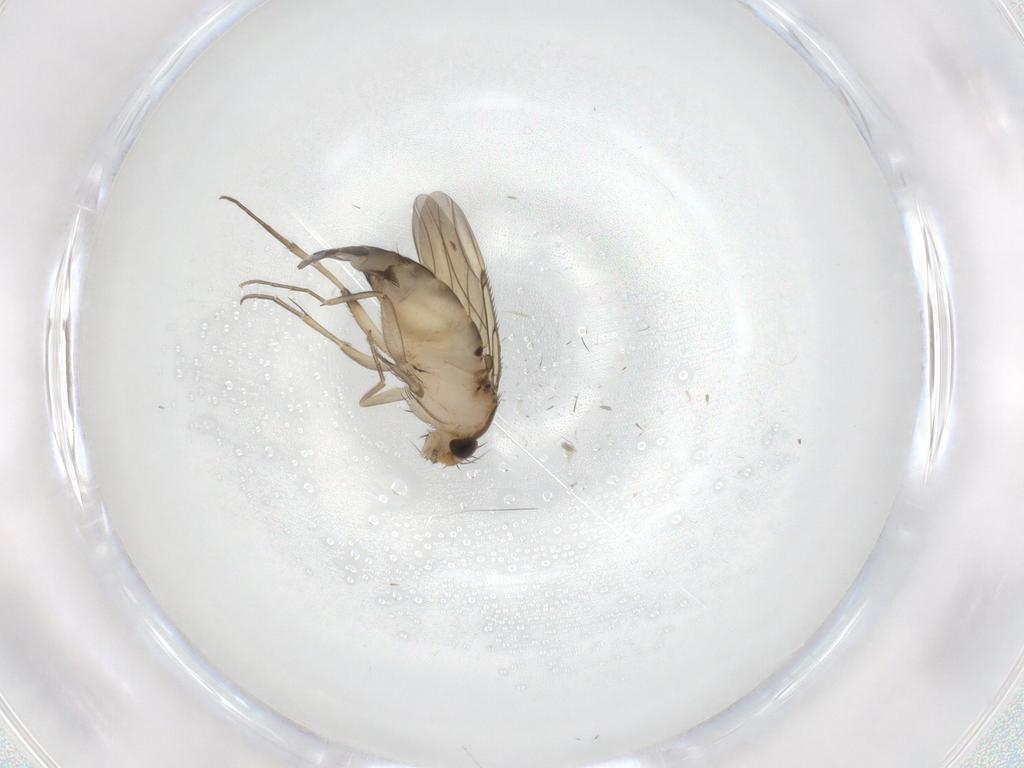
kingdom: Animalia
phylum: Arthropoda
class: Insecta
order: Diptera
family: Phoridae
